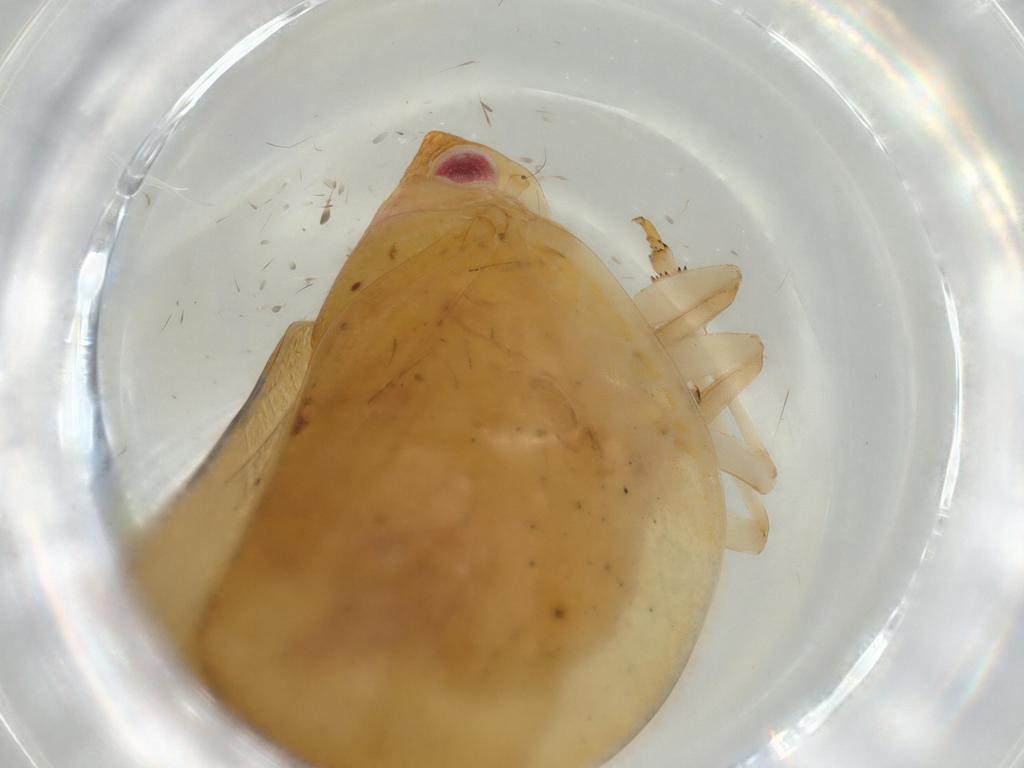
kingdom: Animalia
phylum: Arthropoda
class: Insecta
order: Hemiptera
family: Acanaloniidae
